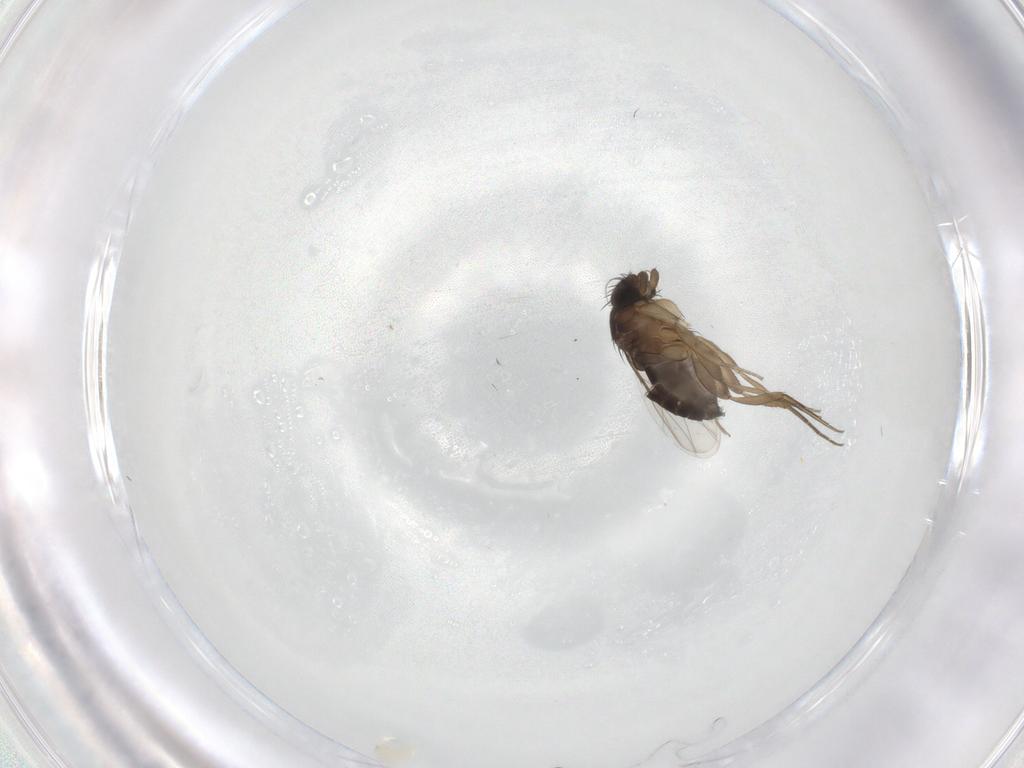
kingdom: Animalia
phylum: Arthropoda
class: Insecta
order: Diptera
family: Phoridae
